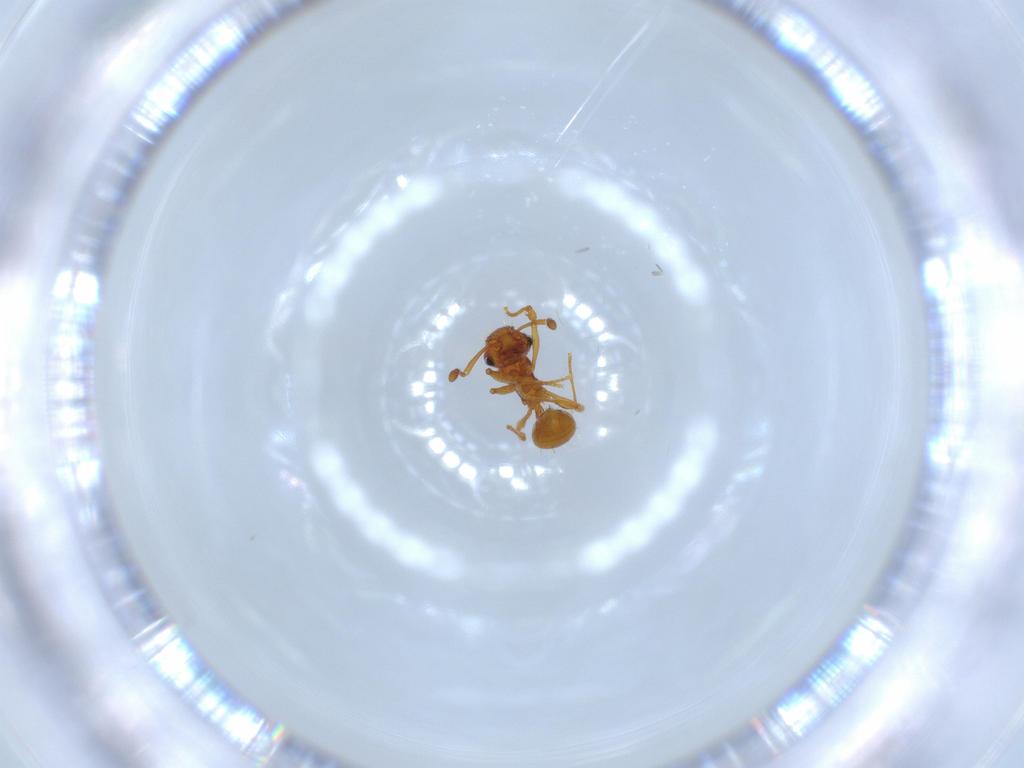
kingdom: Animalia
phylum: Arthropoda
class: Insecta
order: Hymenoptera
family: Formicidae
